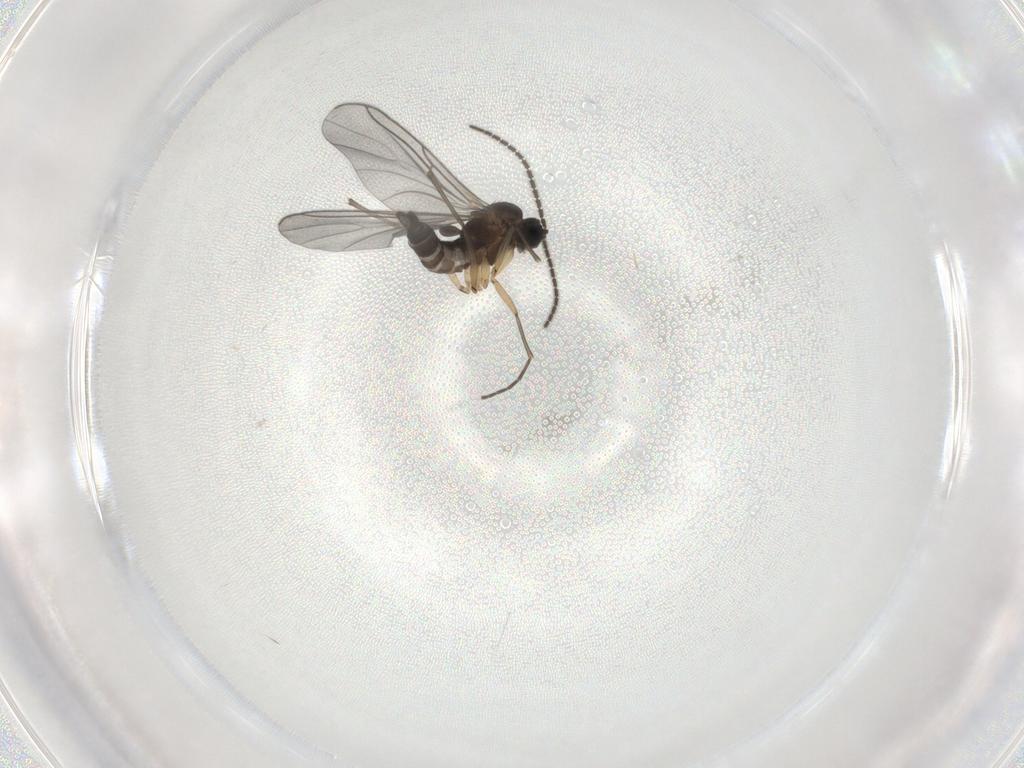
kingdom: Animalia
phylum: Arthropoda
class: Insecta
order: Diptera
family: Sciaridae
